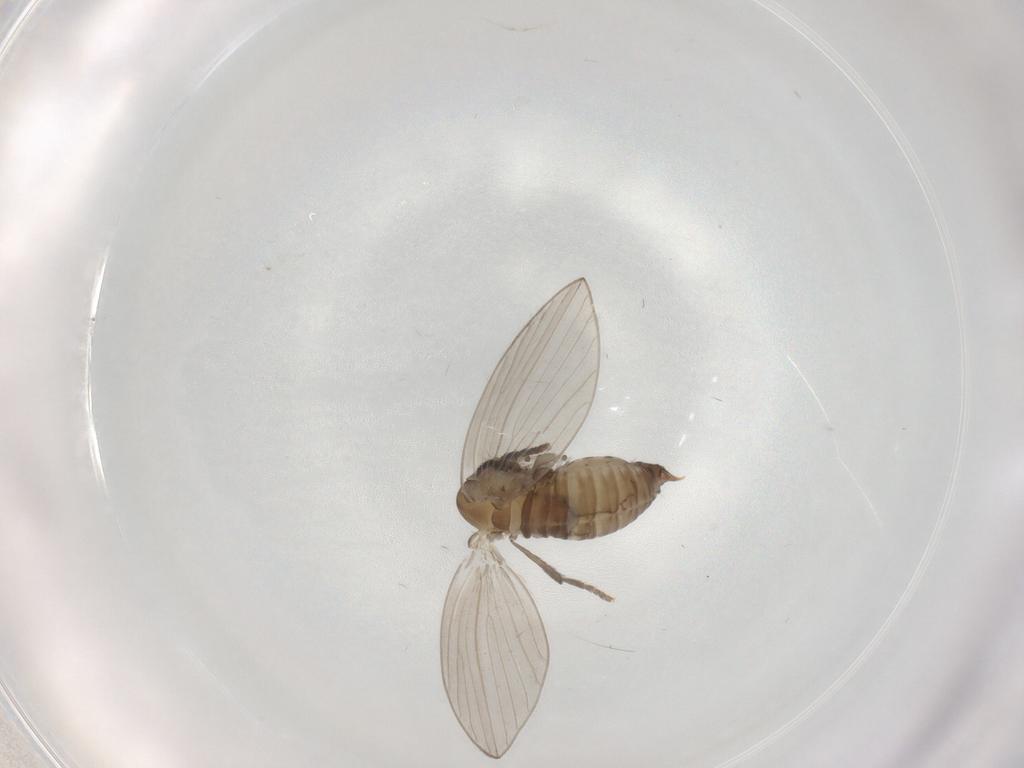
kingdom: Animalia
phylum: Arthropoda
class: Insecta
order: Diptera
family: Psychodidae
